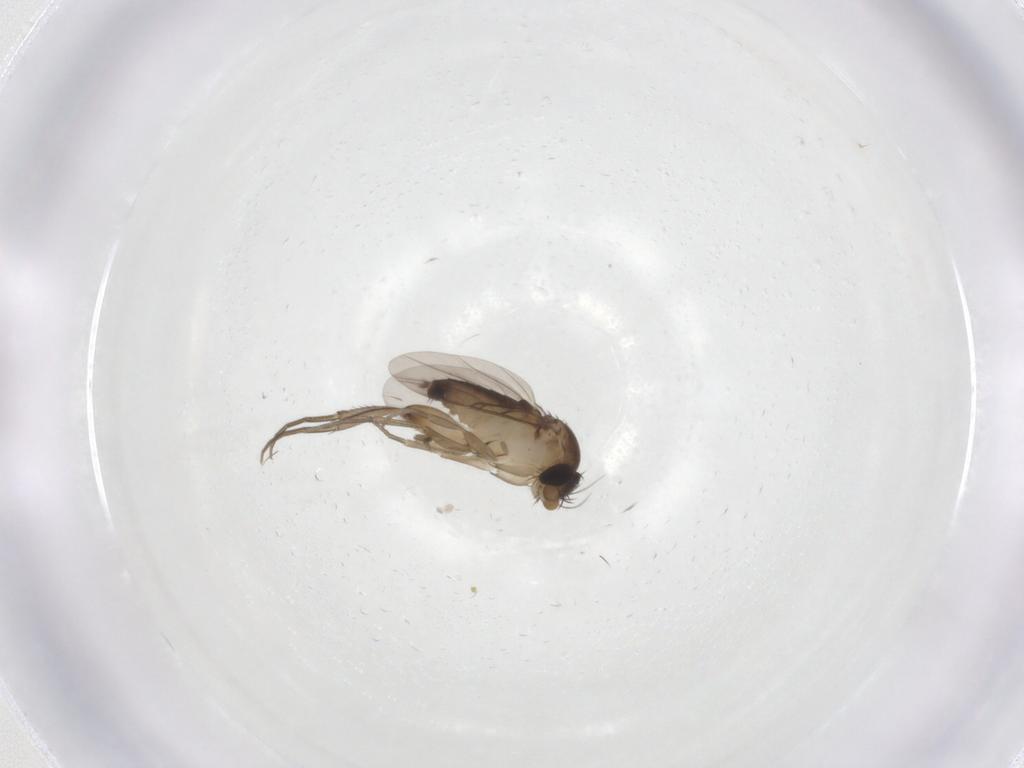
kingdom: Animalia
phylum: Arthropoda
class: Insecta
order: Diptera
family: Phoridae
